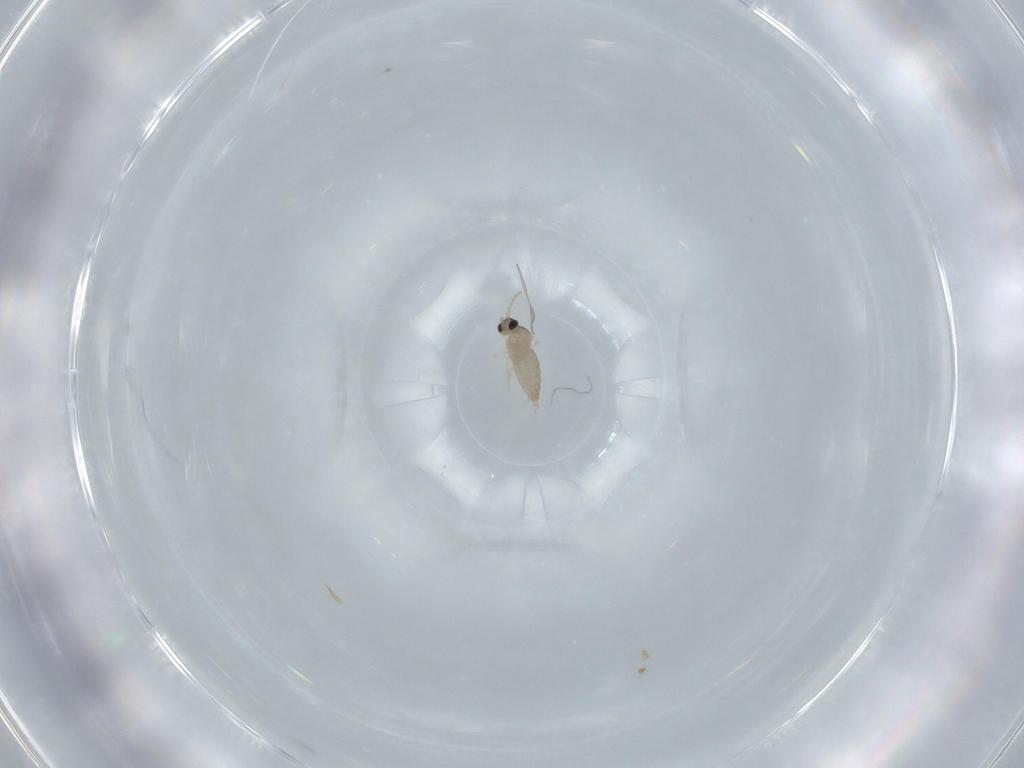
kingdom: Animalia
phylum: Arthropoda
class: Insecta
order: Diptera
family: Cecidomyiidae
